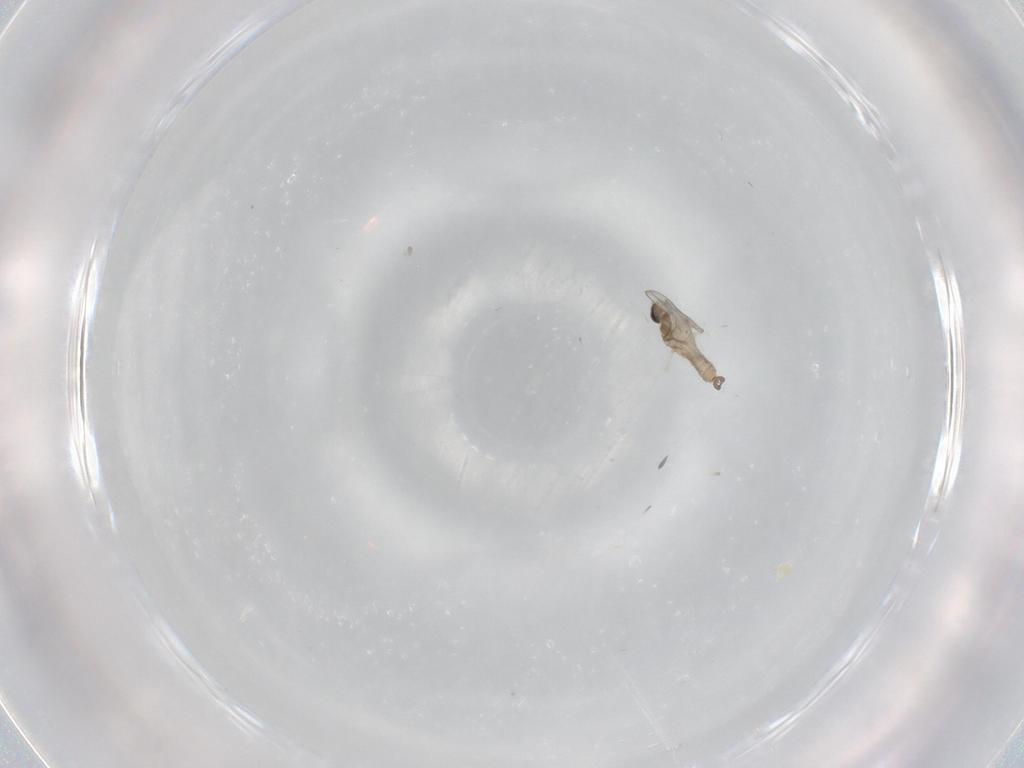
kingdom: Animalia
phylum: Arthropoda
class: Insecta
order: Diptera
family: Cecidomyiidae
